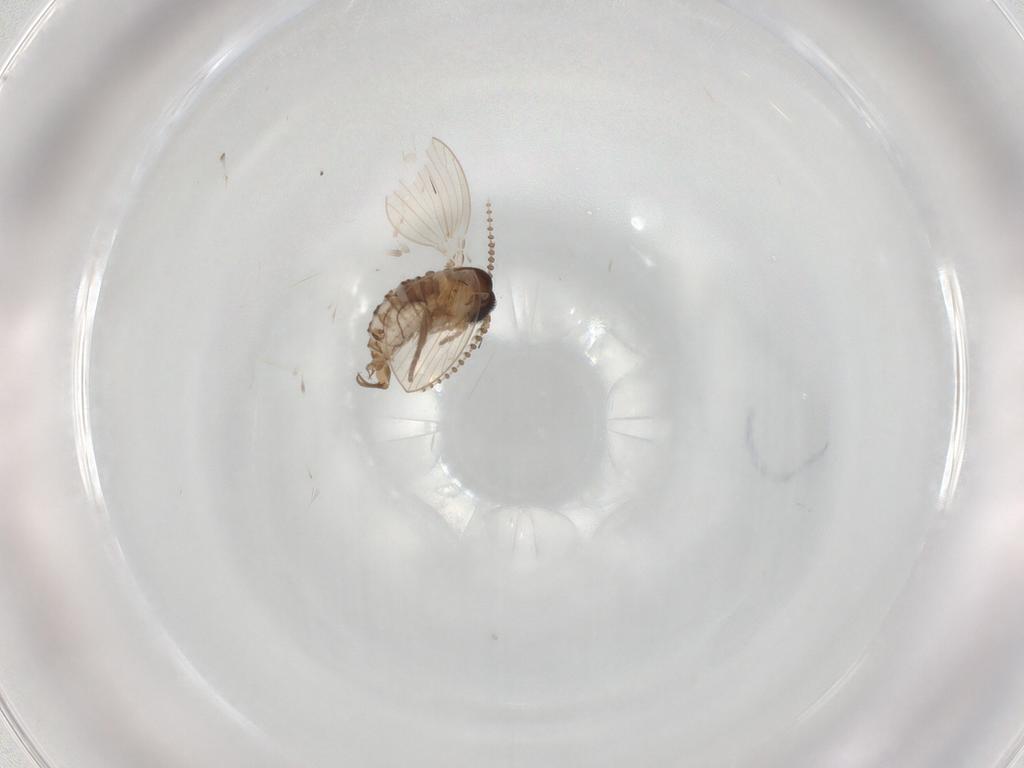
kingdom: Animalia
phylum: Arthropoda
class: Insecta
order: Diptera
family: Sphaeroceridae
